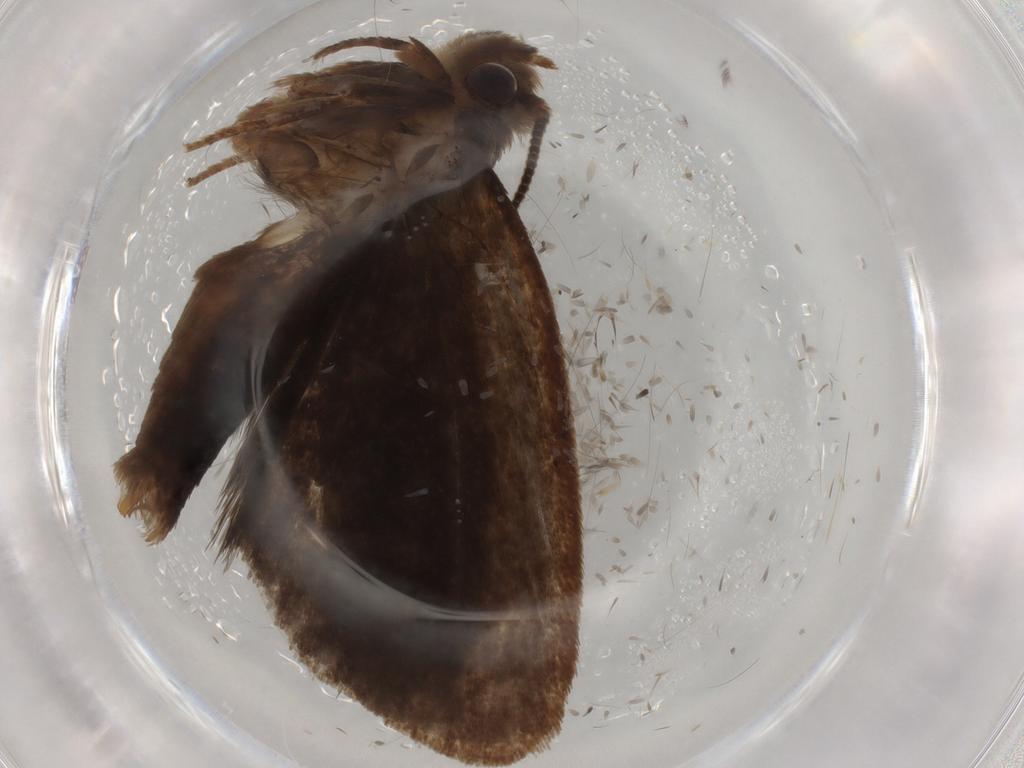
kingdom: Animalia
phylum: Arthropoda
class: Insecta
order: Lepidoptera
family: Tineidae
